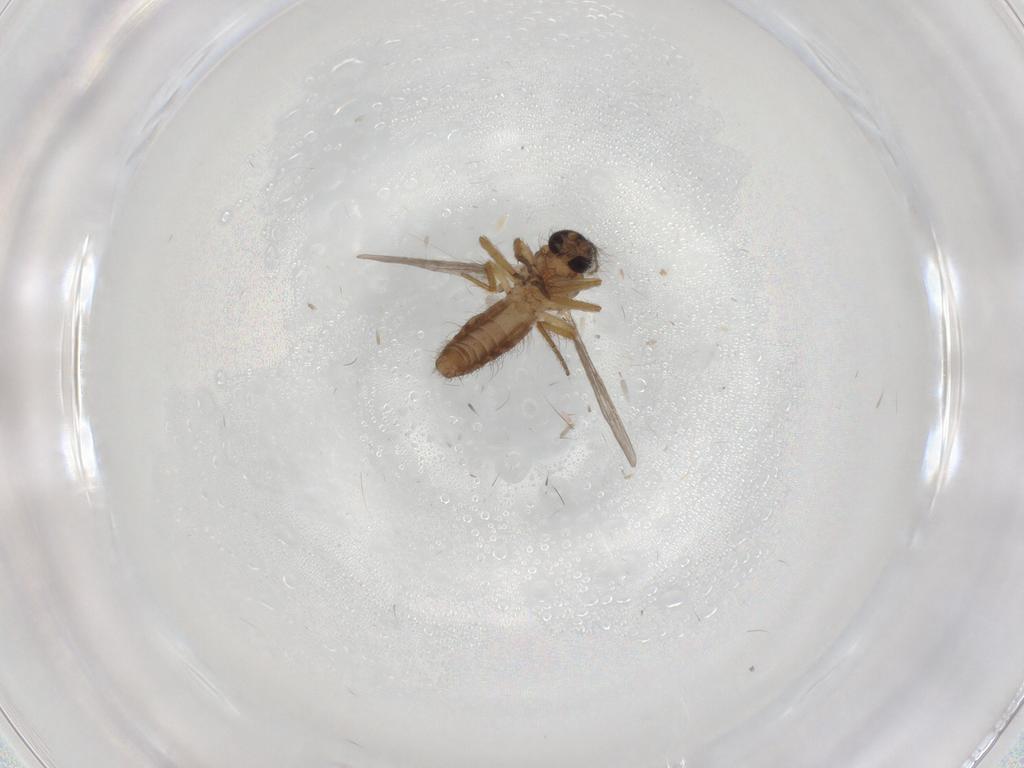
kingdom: Animalia
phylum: Arthropoda
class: Insecta
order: Diptera
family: Ceratopogonidae
